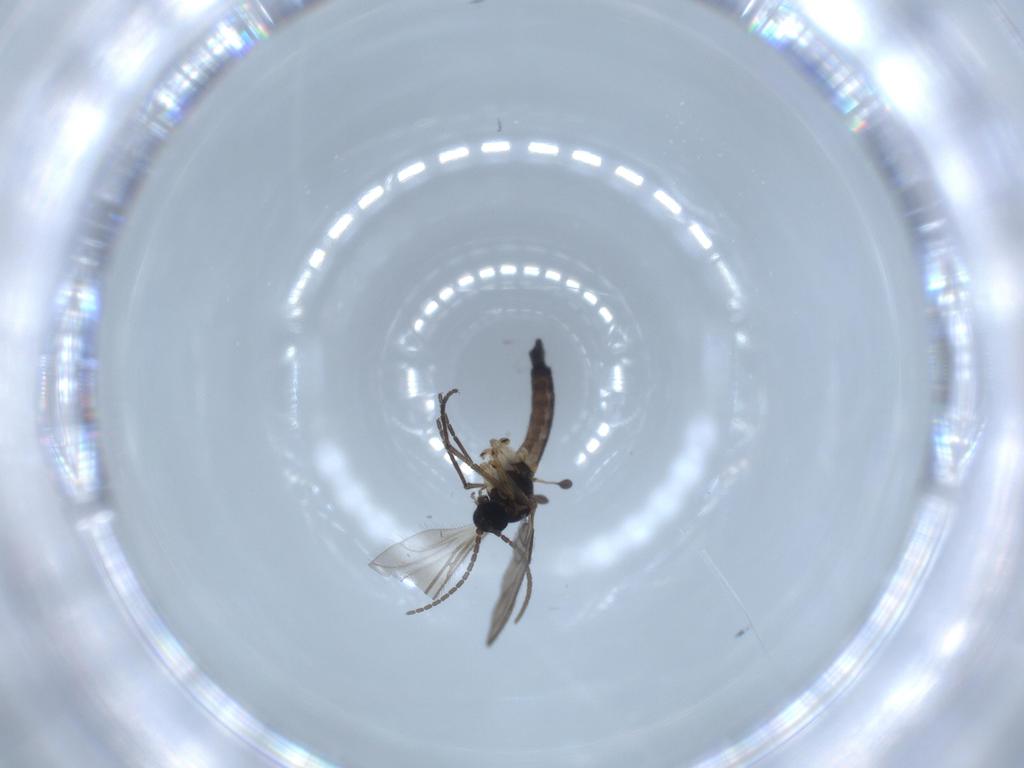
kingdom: Animalia
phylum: Arthropoda
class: Insecta
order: Diptera
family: Sciaridae
